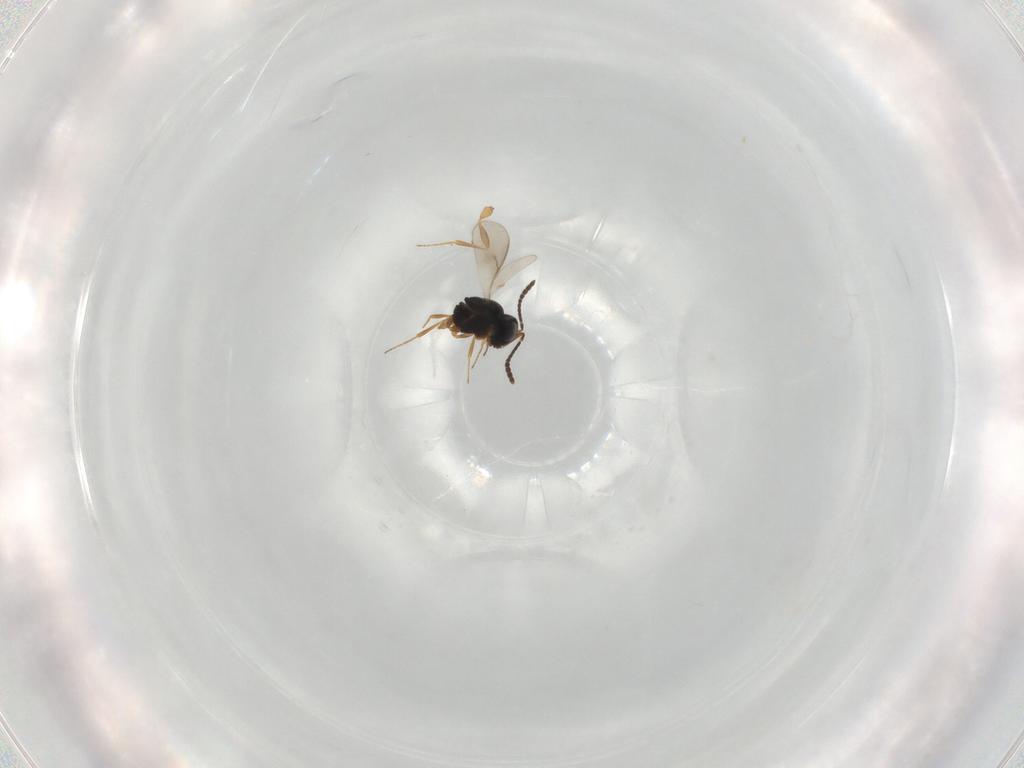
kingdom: Animalia
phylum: Arthropoda
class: Insecta
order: Hymenoptera
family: Scelionidae
